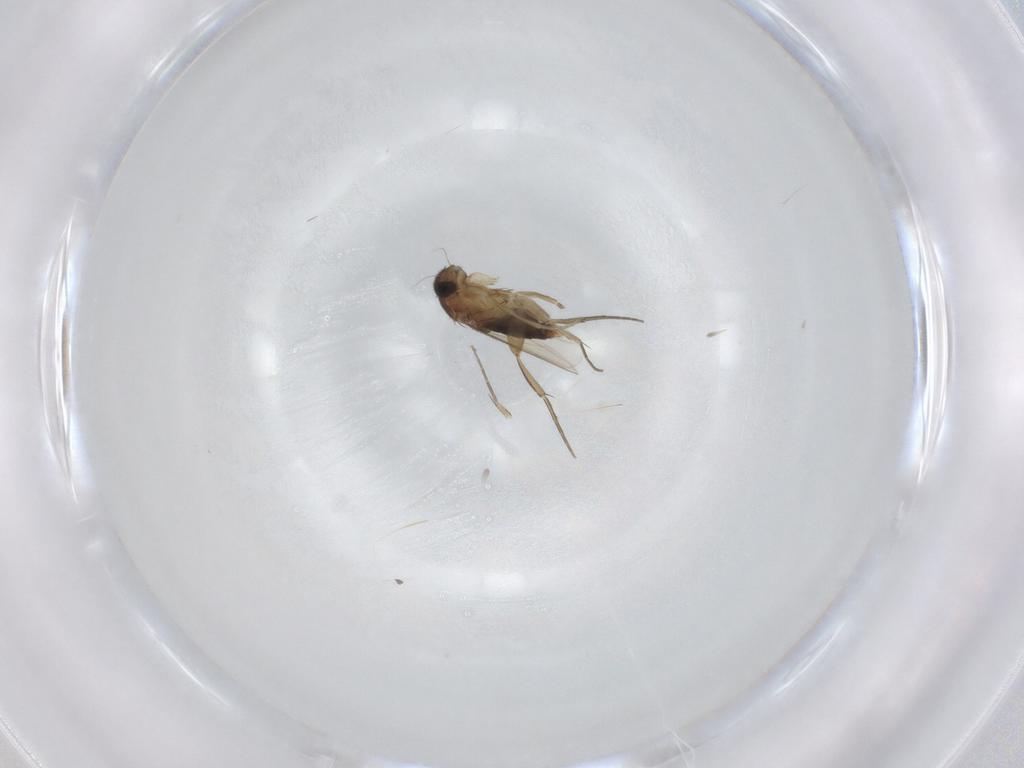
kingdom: Animalia
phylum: Arthropoda
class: Insecta
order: Diptera
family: Phoridae
